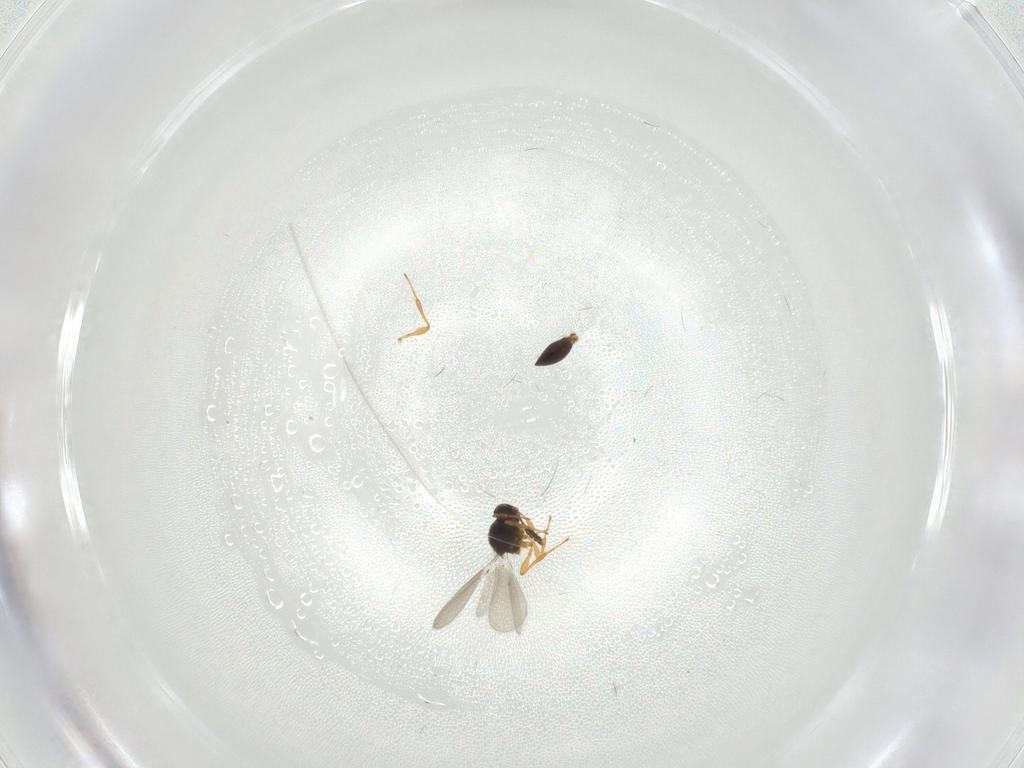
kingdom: Animalia
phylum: Arthropoda
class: Insecta
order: Hymenoptera
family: Platygastridae
